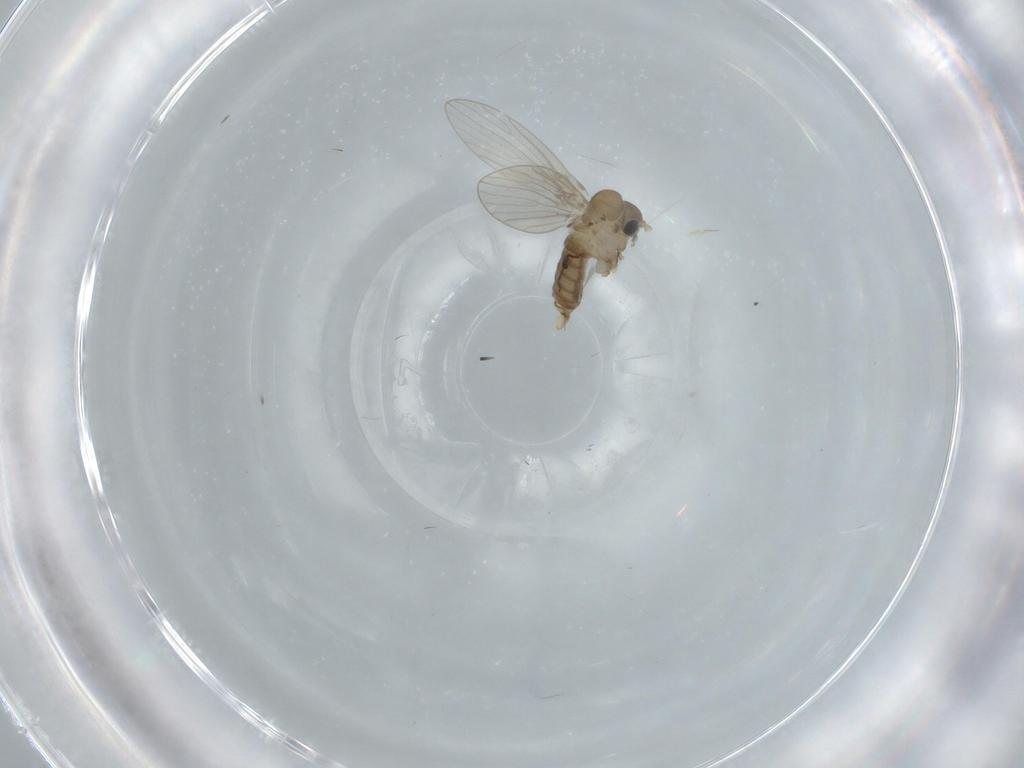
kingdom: Animalia
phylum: Arthropoda
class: Insecta
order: Diptera
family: Psychodidae
